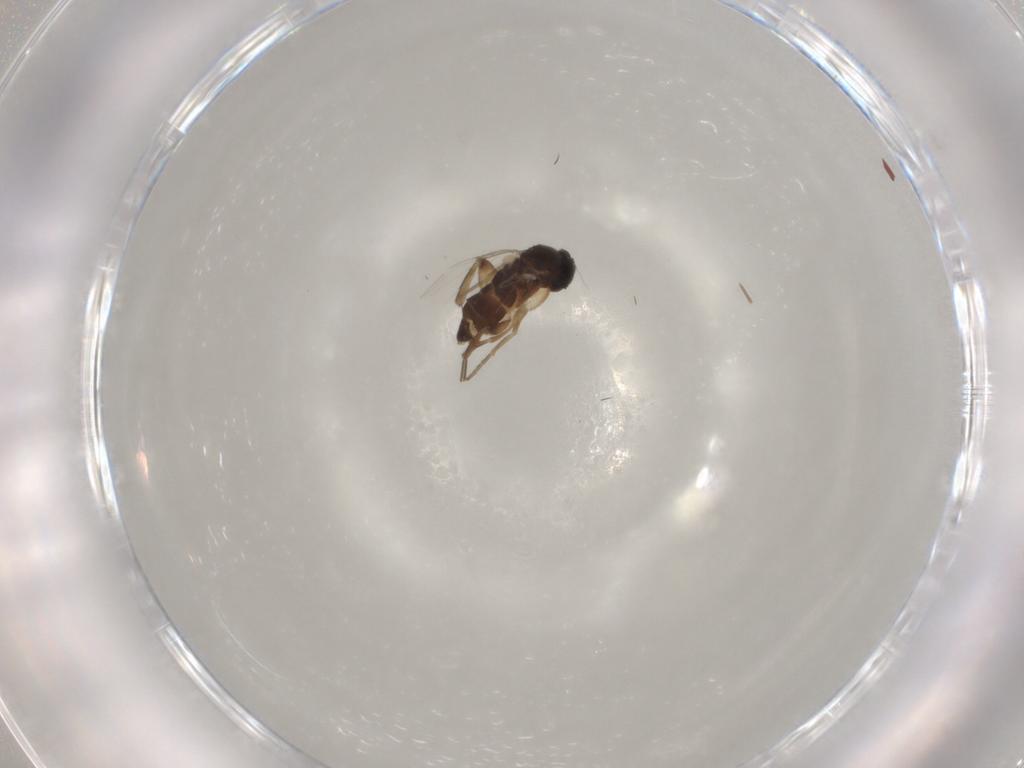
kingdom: Animalia
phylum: Arthropoda
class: Insecta
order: Diptera
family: Phoridae
